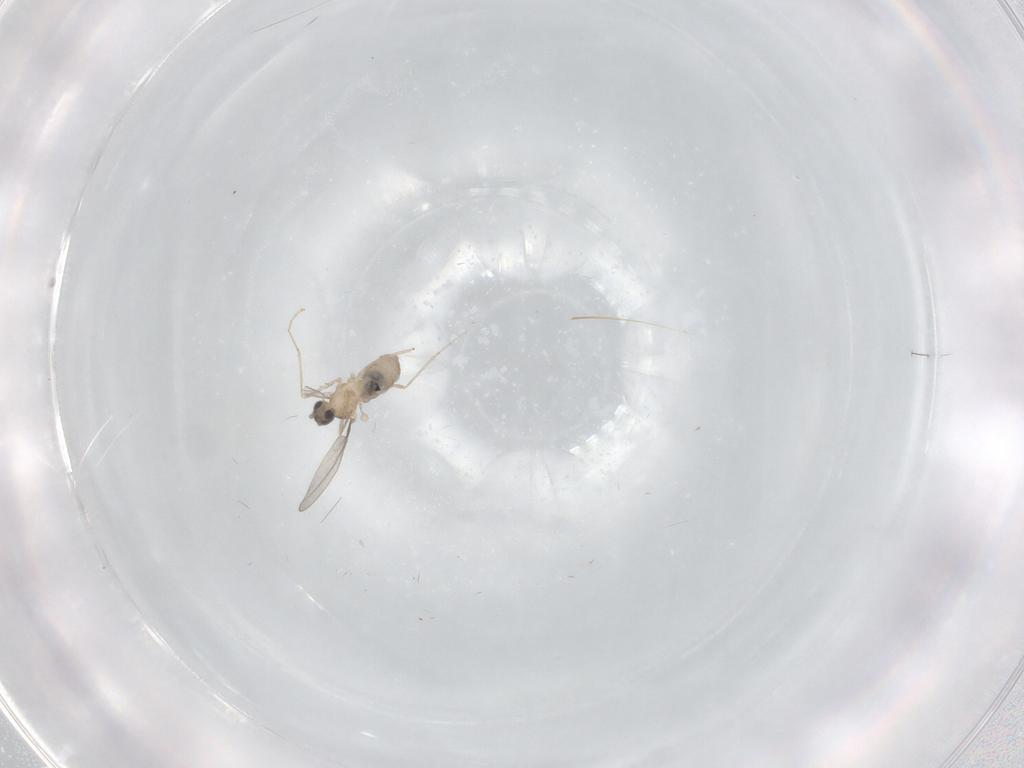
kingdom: Animalia
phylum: Arthropoda
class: Insecta
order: Diptera
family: Cecidomyiidae
